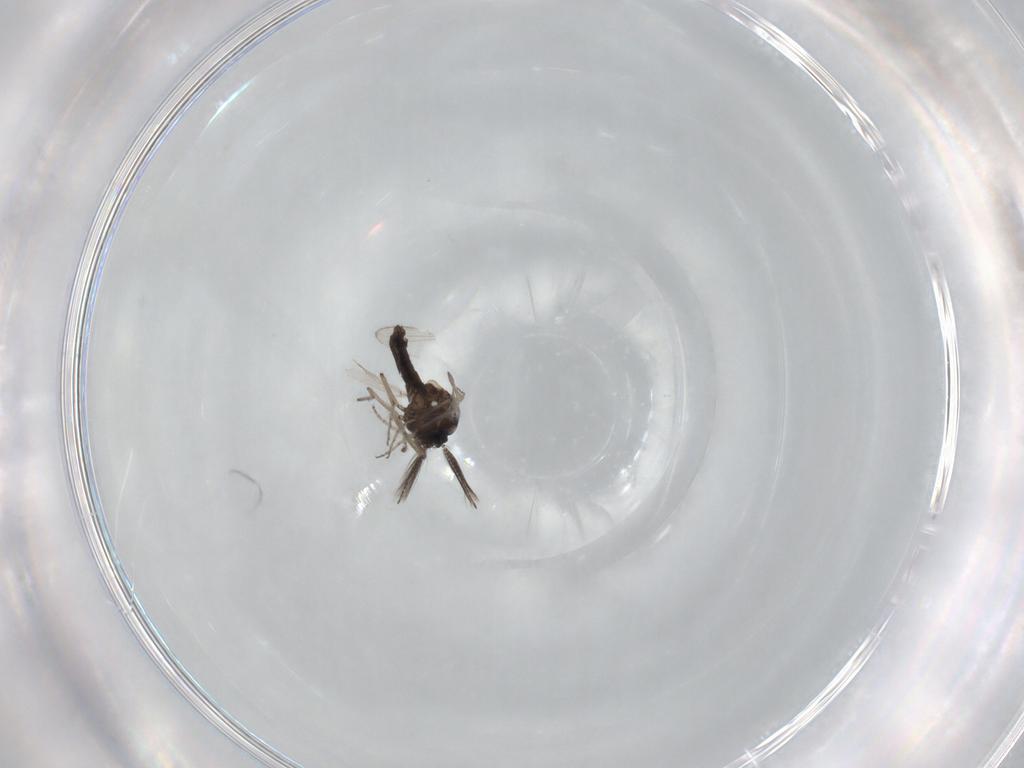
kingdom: Animalia
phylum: Arthropoda
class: Insecta
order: Diptera
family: Ceratopogonidae
